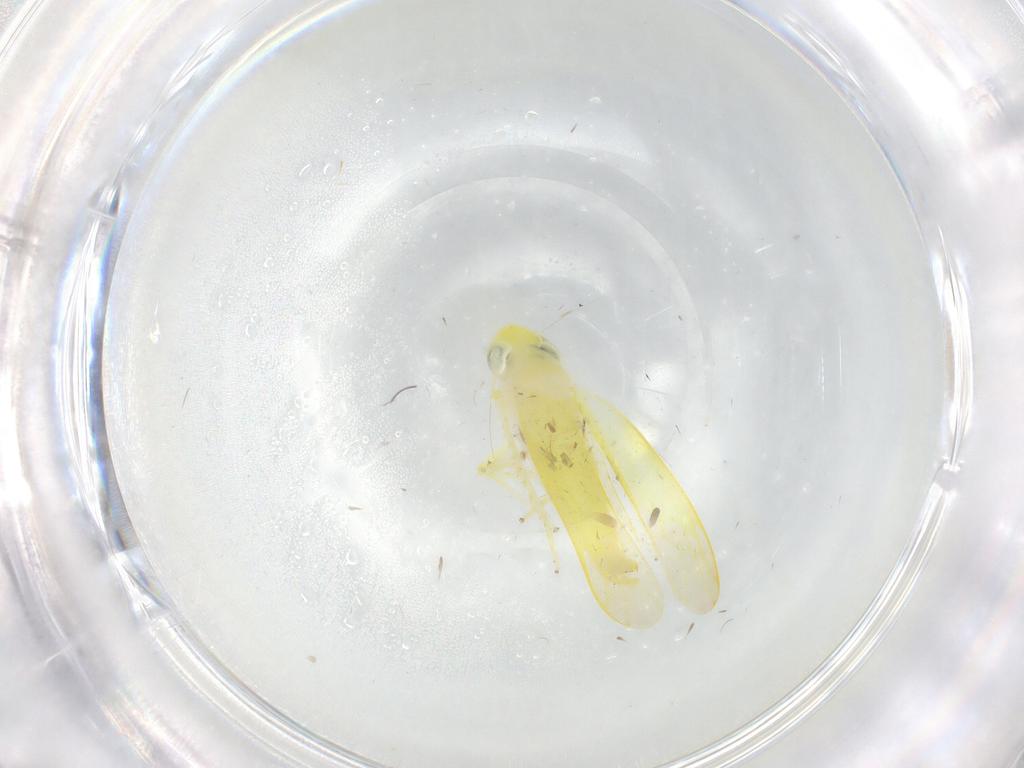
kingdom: Animalia
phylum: Arthropoda
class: Insecta
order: Hemiptera
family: Cicadellidae
